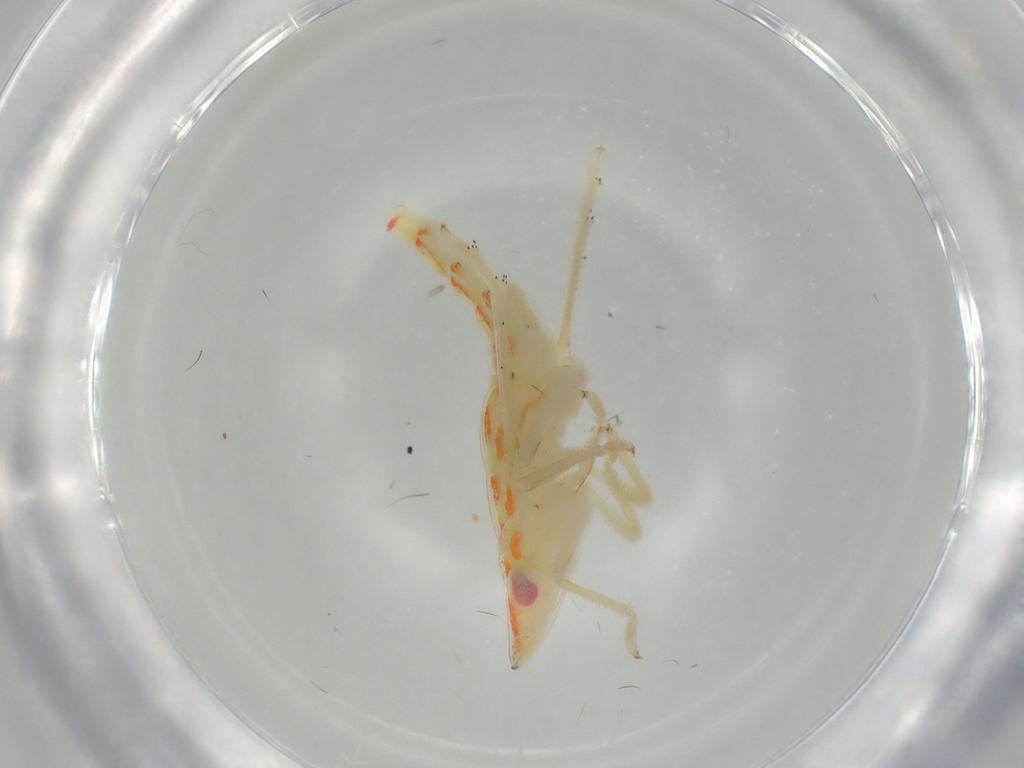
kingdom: Animalia
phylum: Arthropoda
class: Insecta
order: Hemiptera
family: Tropiduchidae
